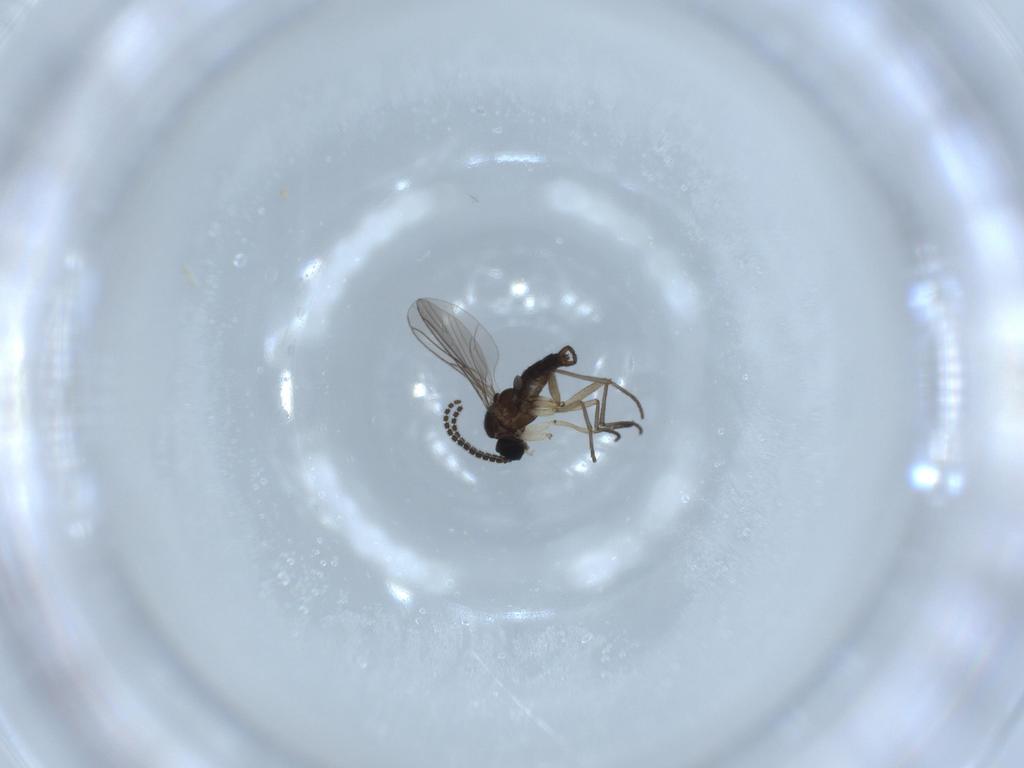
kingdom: Animalia
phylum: Arthropoda
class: Insecta
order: Diptera
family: Sciaridae
